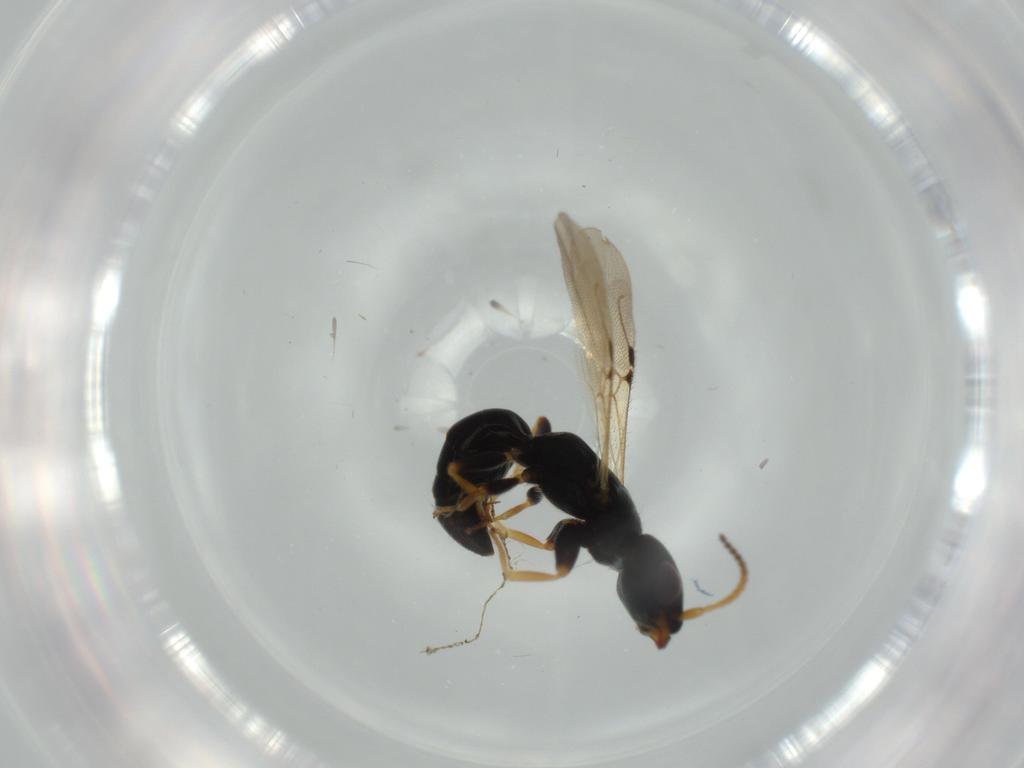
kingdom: Animalia
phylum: Arthropoda
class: Insecta
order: Hymenoptera
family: Bethylidae
